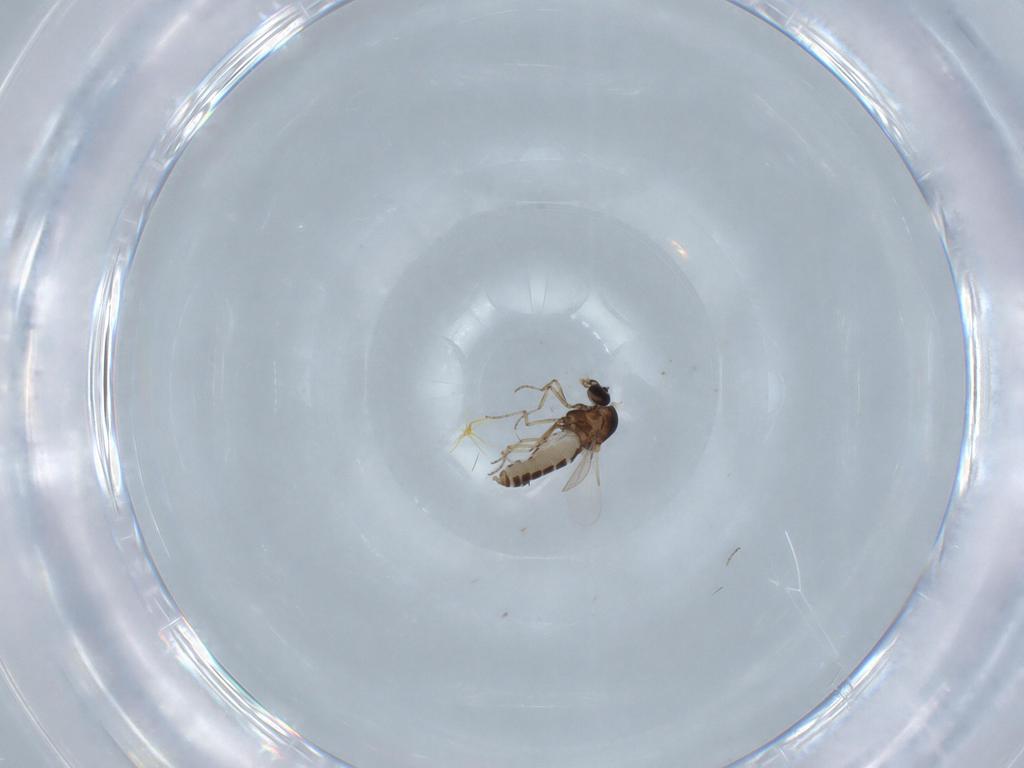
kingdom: Animalia
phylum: Arthropoda
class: Insecta
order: Diptera
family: Ceratopogonidae
